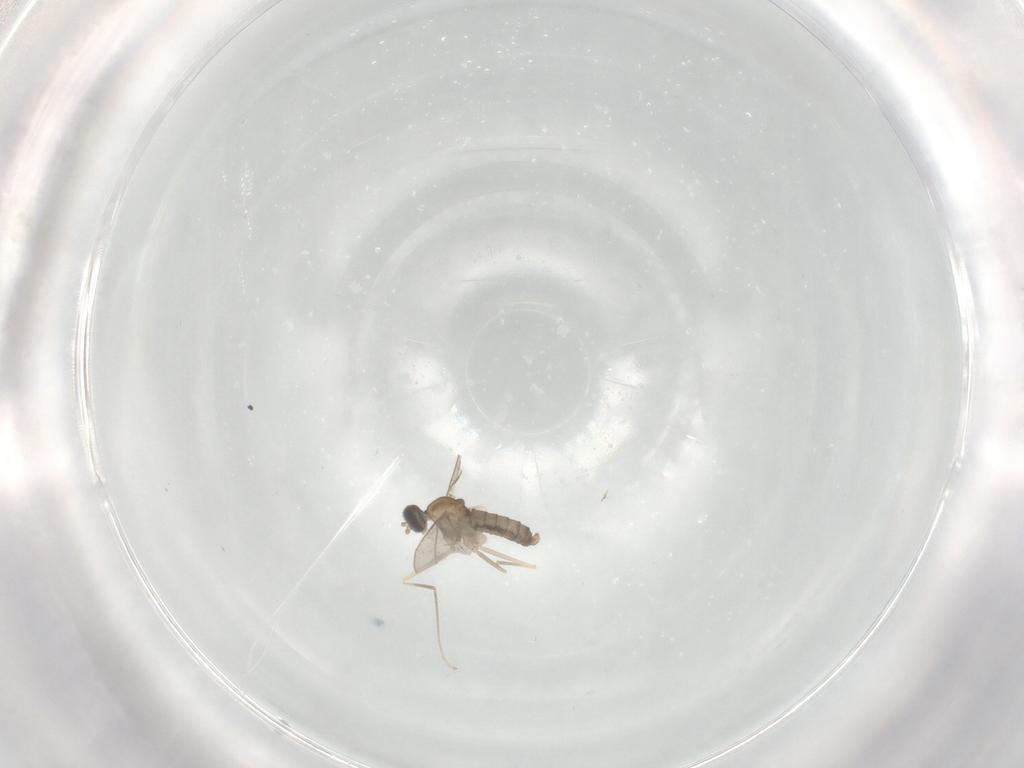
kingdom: Animalia
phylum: Arthropoda
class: Insecta
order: Diptera
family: Cecidomyiidae
